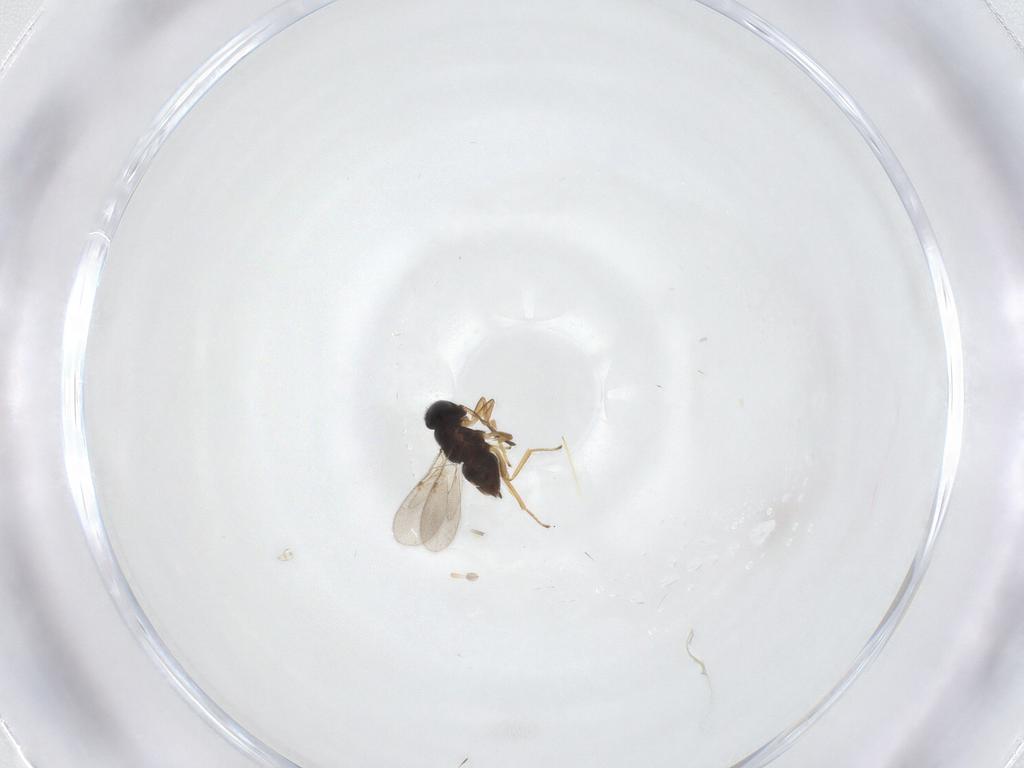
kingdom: Animalia
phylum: Arthropoda
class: Insecta
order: Hymenoptera
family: Encyrtidae
